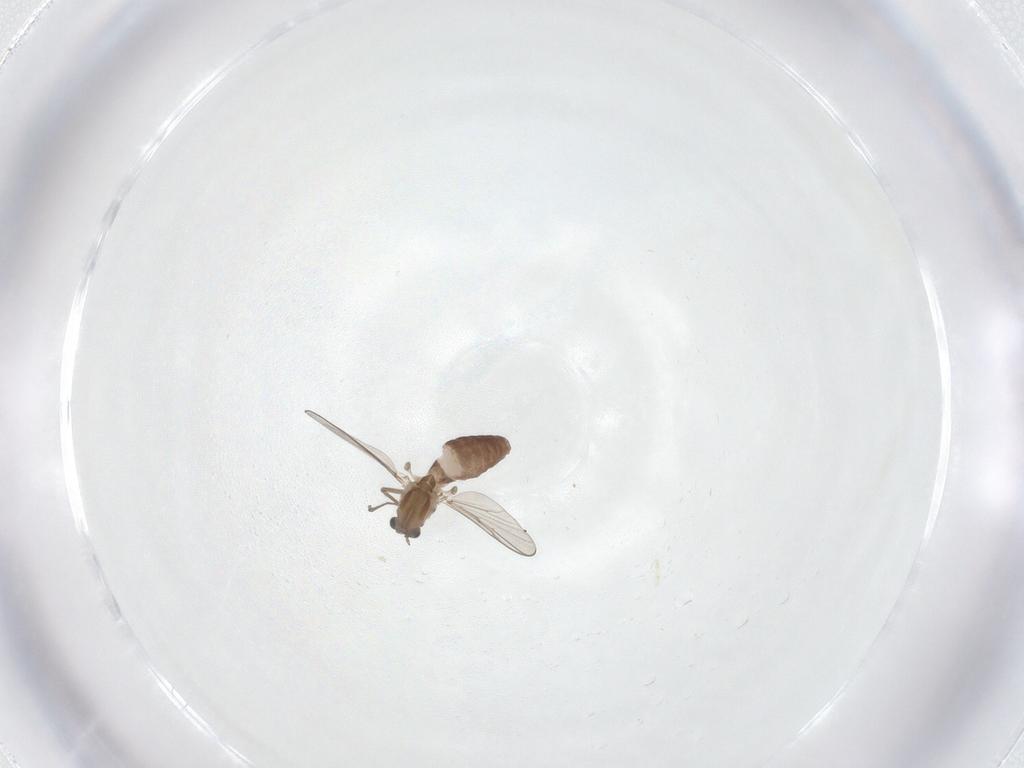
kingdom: Animalia
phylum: Arthropoda
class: Insecta
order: Diptera
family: Chironomidae
